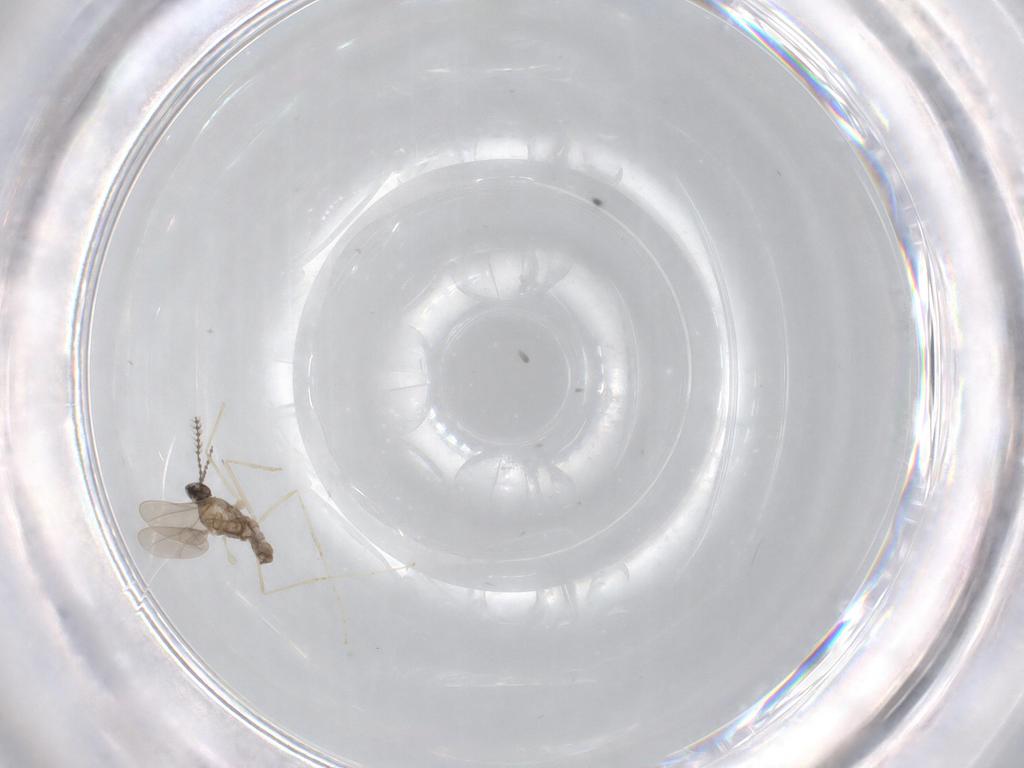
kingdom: Animalia
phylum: Arthropoda
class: Insecta
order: Diptera
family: Cecidomyiidae
